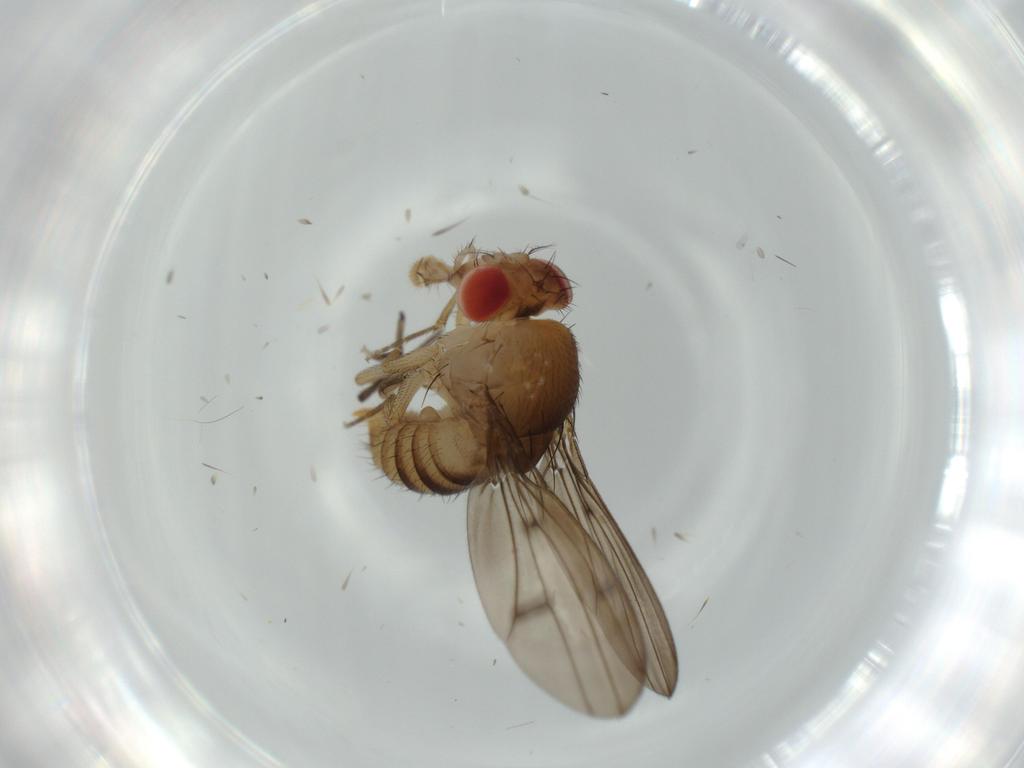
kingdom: Animalia
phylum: Arthropoda
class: Insecta
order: Diptera
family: Drosophilidae
